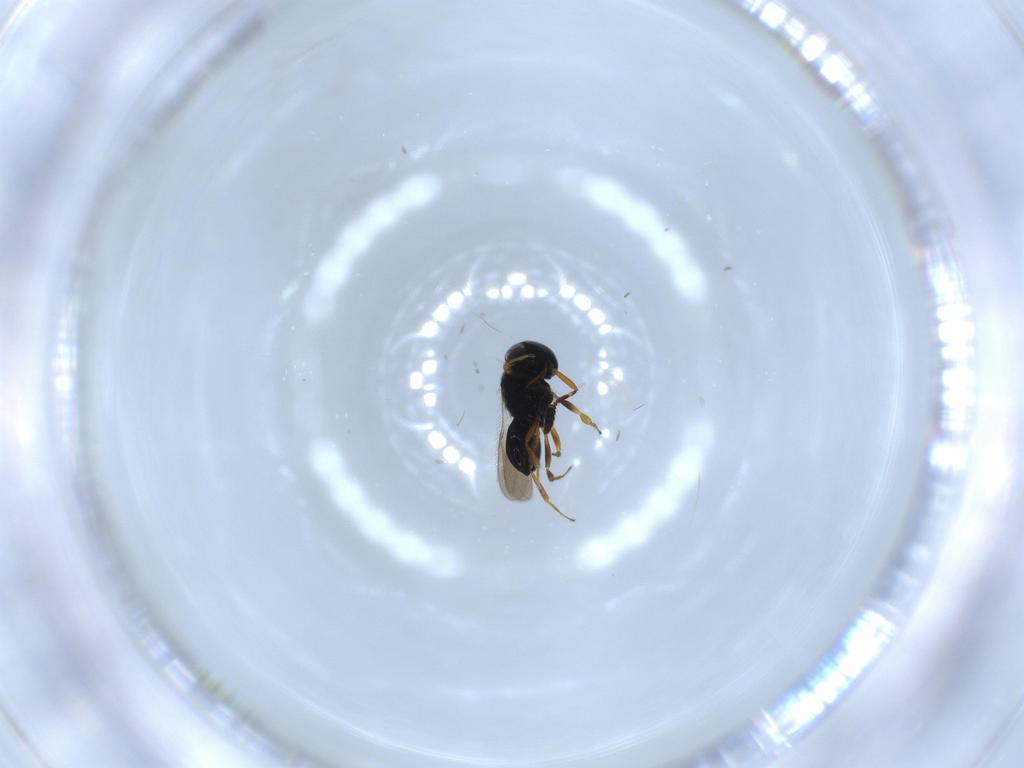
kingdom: Animalia
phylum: Arthropoda
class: Insecta
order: Hymenoptera
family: Scelionidae
